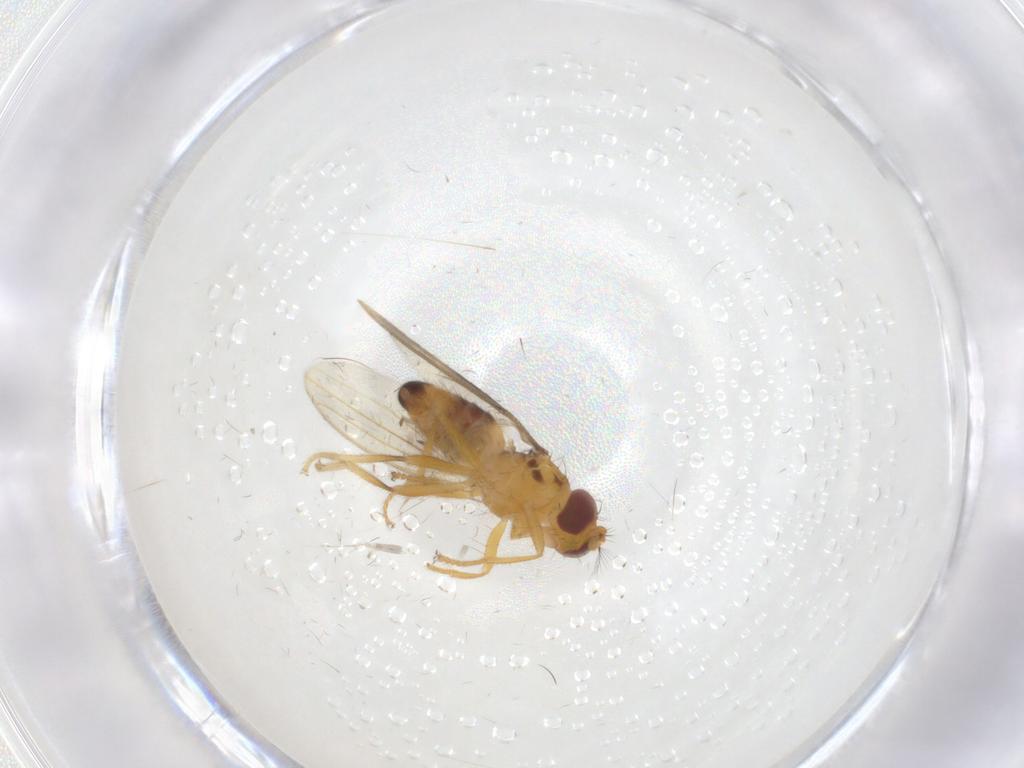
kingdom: Animalia
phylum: Arthropoda
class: Insecta
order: Diptera
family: Periscelididae
